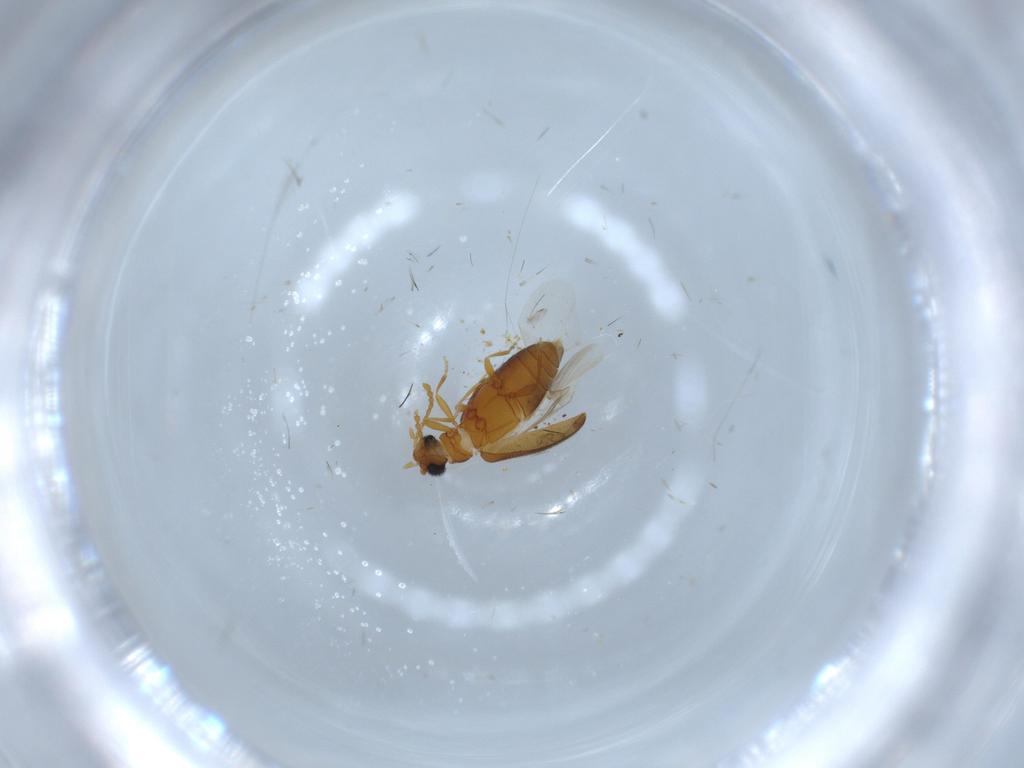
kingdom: Animalia
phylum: Arthropoda
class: Insecta
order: Coleoptera
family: Aderidae
